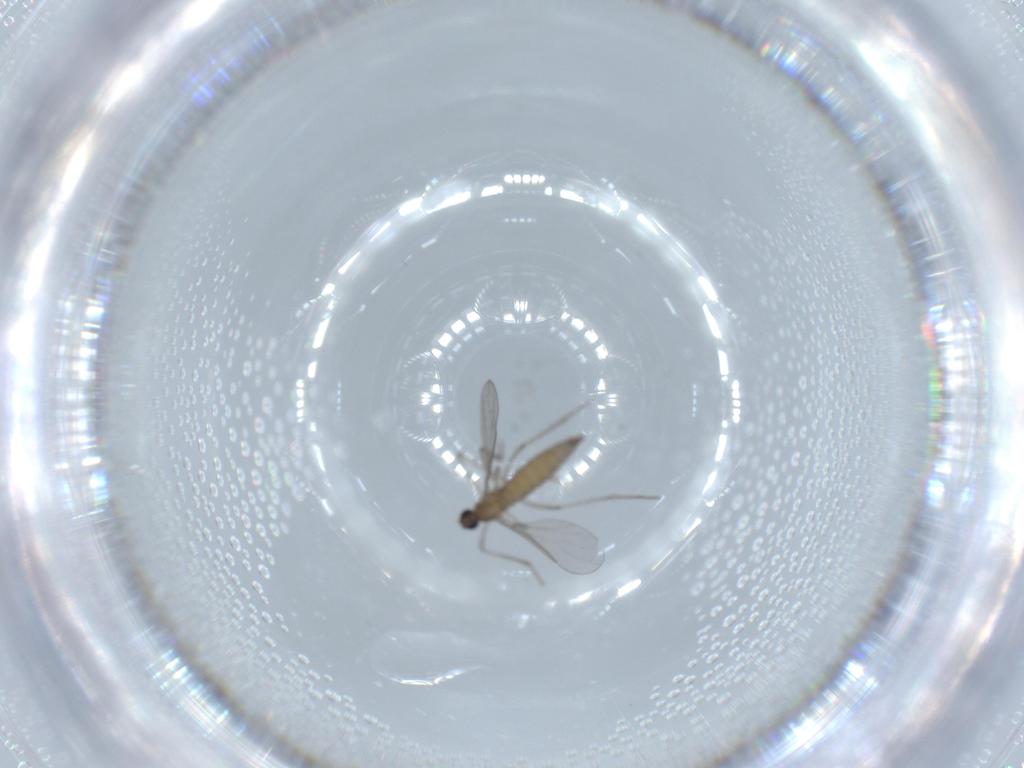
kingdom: Animalia
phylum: Arthropoda
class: Insecta
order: Diptera
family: Cecidomyiidae
